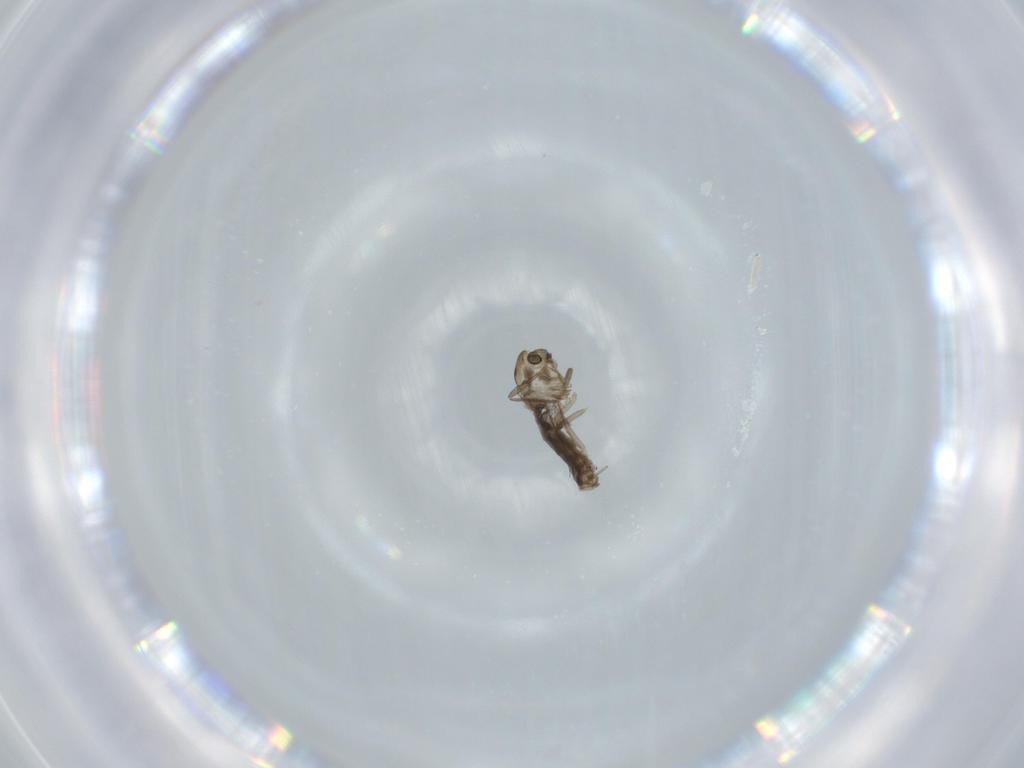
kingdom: Animalia
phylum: Arthropoda
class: Insecta
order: Diptera
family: Chironomidae
